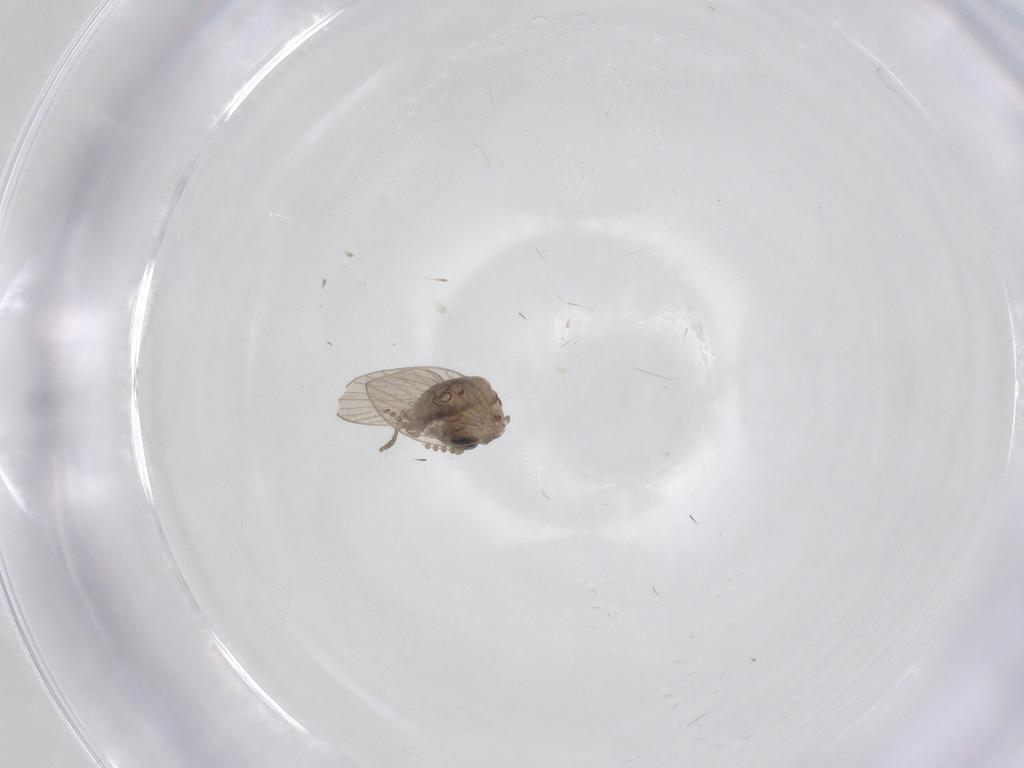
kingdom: Animalia
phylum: Arthropoda
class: Insecta
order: Diptera
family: Psychodidae
